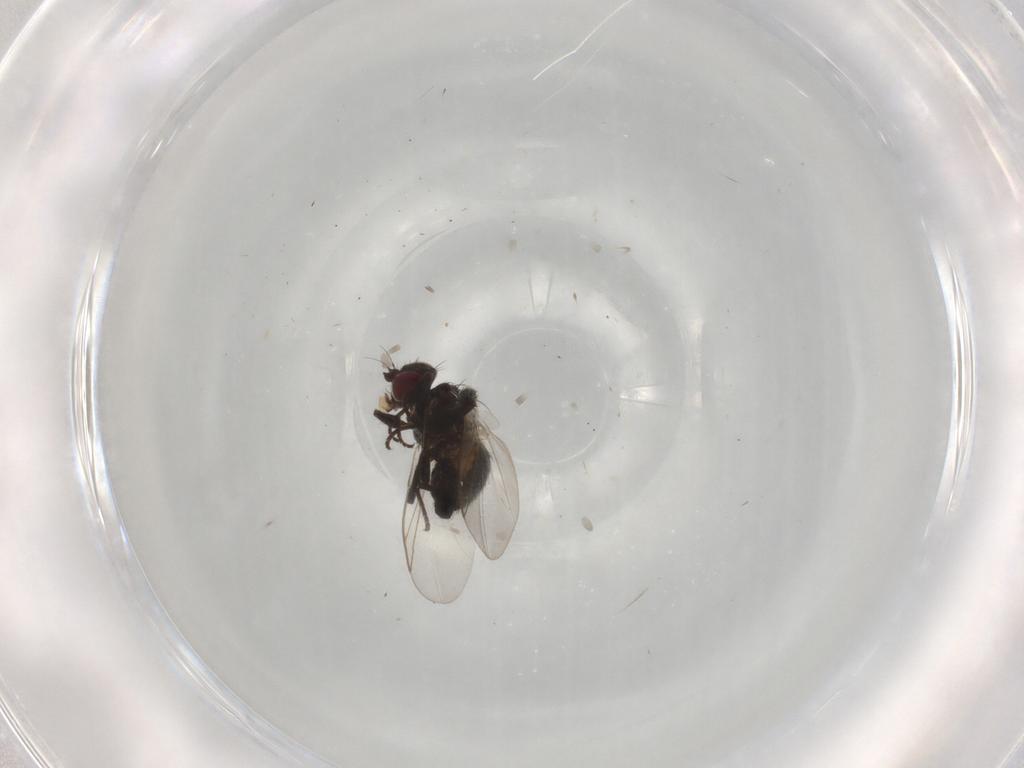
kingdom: Animalia
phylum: Arthropoda
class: Insecta
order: Diptera
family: Agromyzidae
